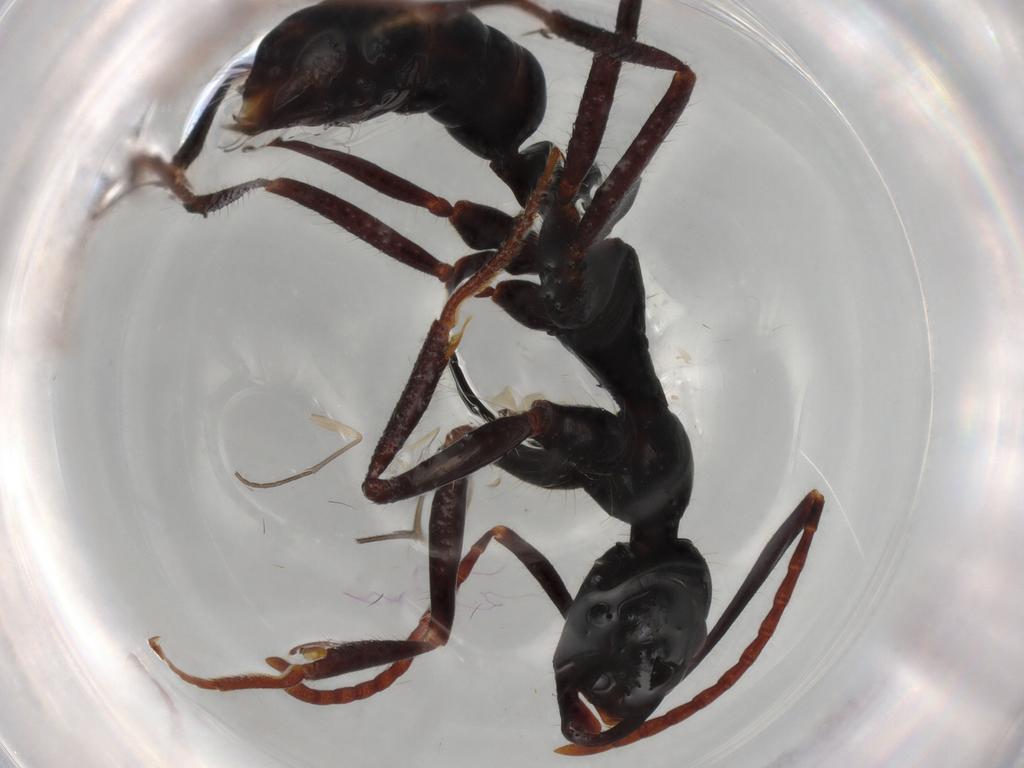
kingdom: Animalia
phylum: Arthropoda
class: Insecta
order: Hymenoptera
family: Formicidae
